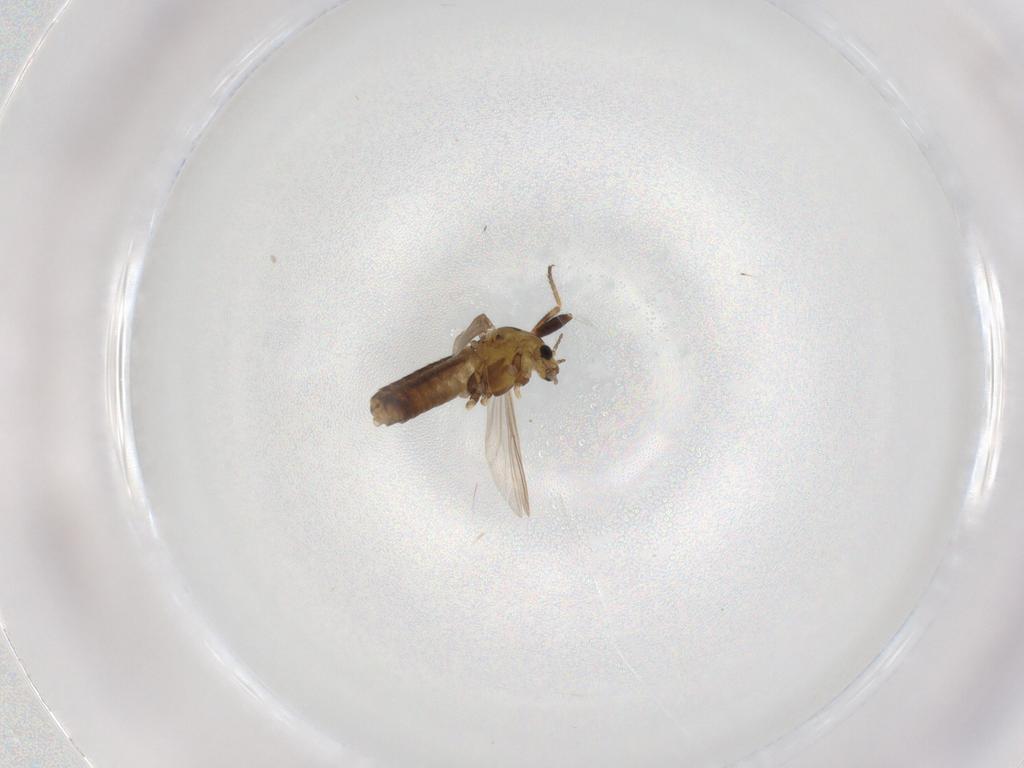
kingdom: Animalia
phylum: Arthropoda
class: Insecta
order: Diptera
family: Chironomidae
